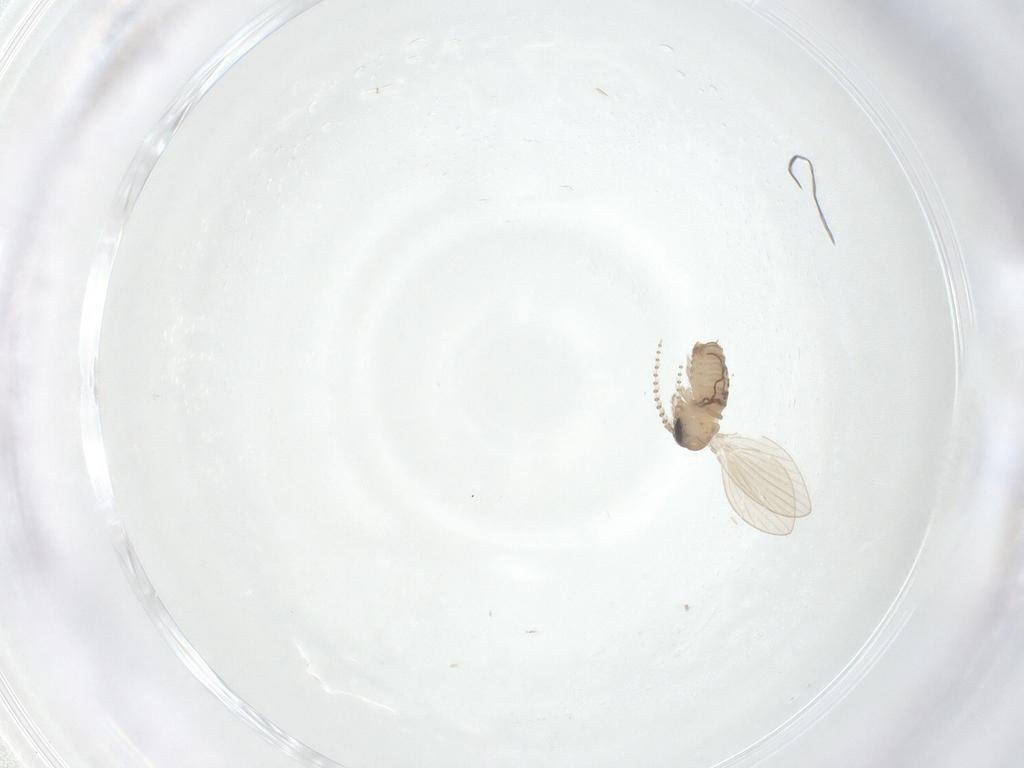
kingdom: Animalia
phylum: Arthropoda
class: Insecta
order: Diptera
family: Psychodidae
